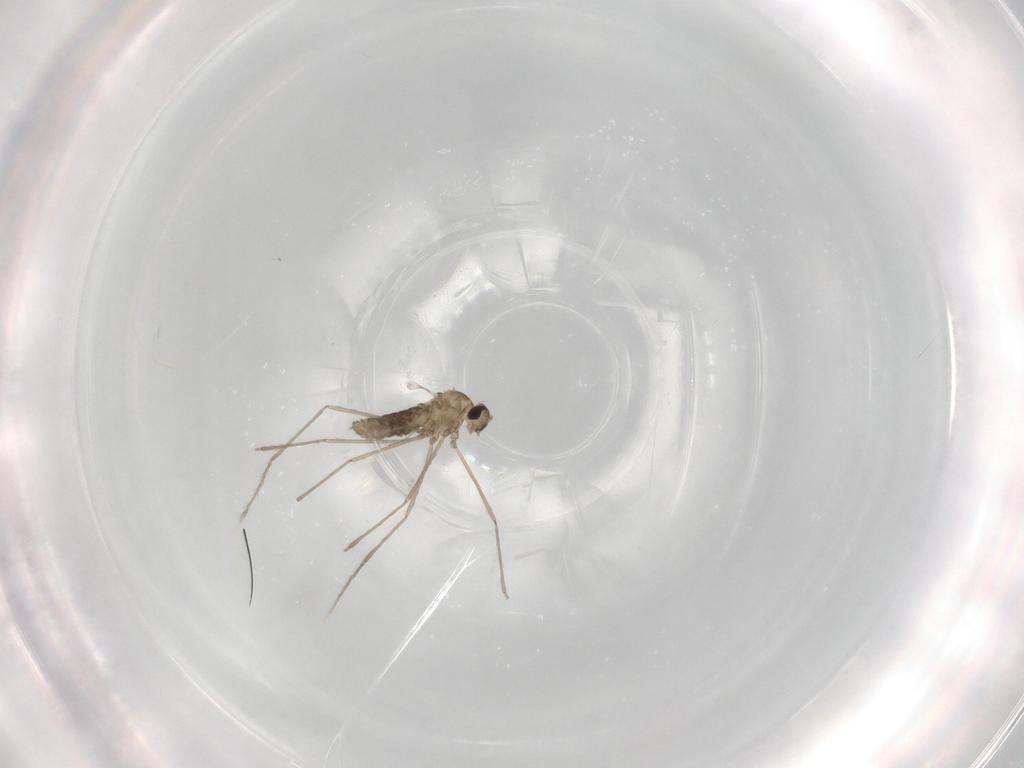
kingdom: Animalia
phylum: Arthropoda
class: Insecta
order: Diptera
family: Cecidomyiidae
